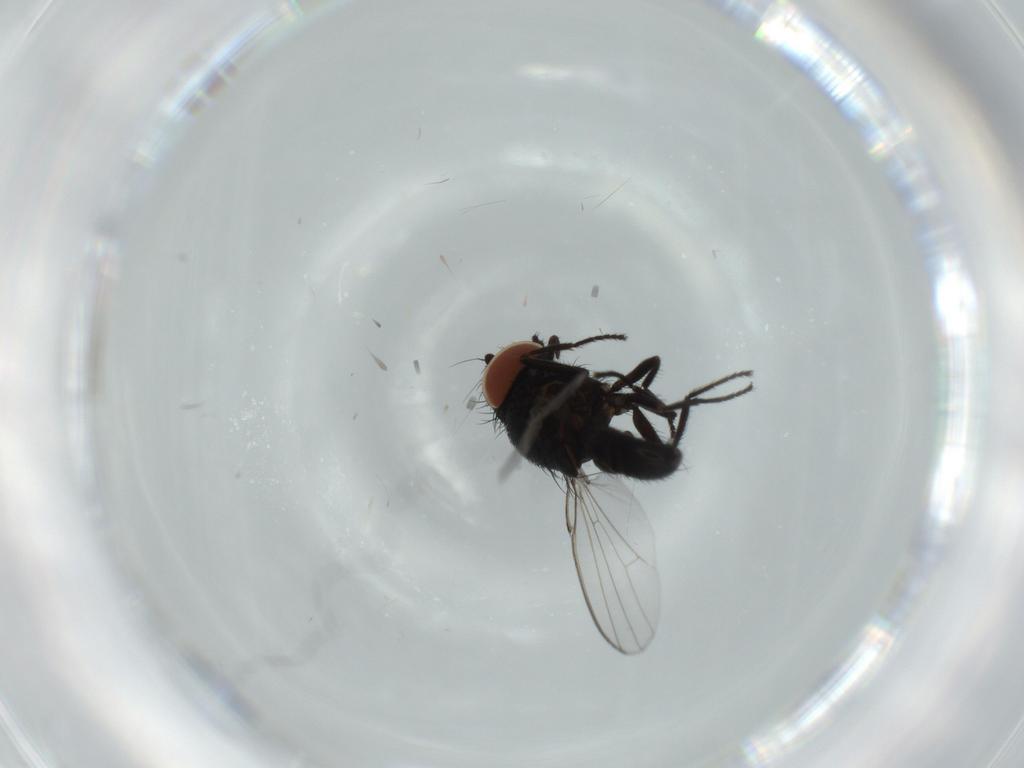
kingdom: Animalia
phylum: Arthropoda
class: Insecta
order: Diptera
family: Milichiidae
